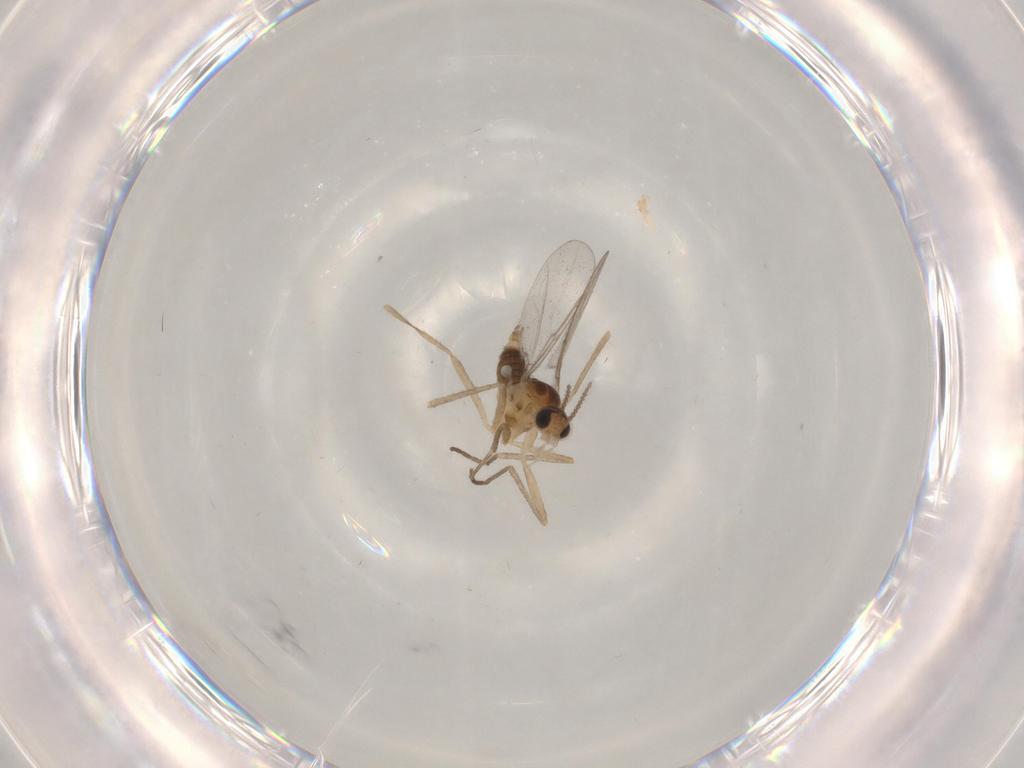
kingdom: Animalia
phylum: Arthropoda
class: Insecta
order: Diptera
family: Cecidomyiidae
